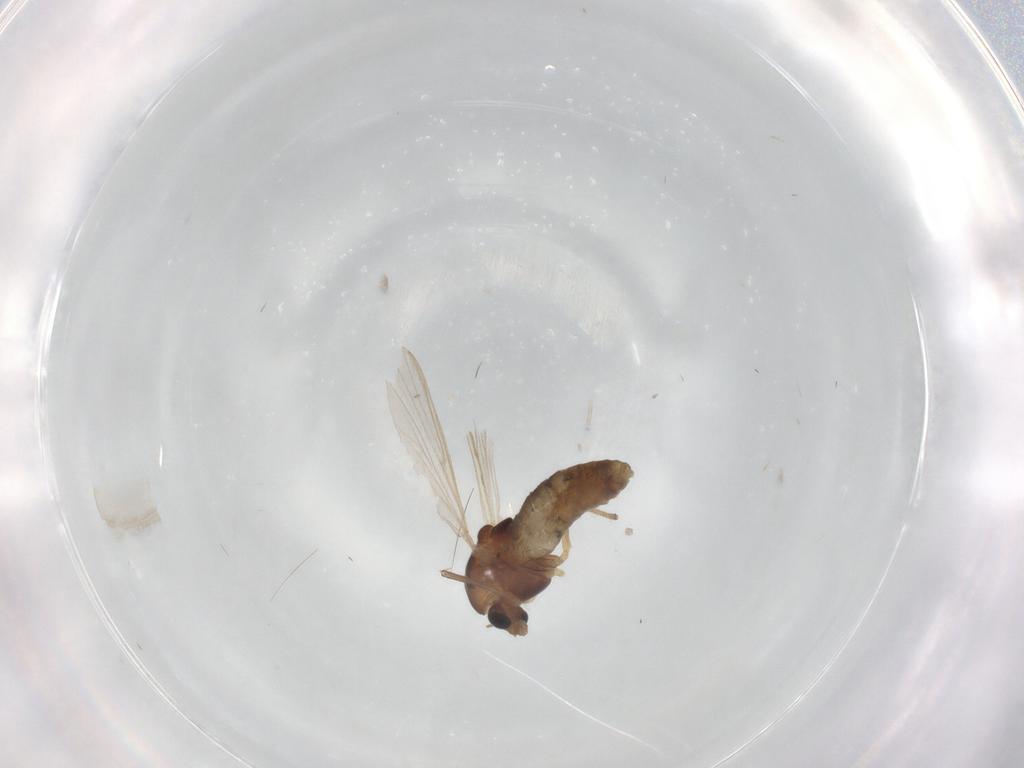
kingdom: Animalia
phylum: Arthropoda
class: Insecta
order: Diptera
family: Chironomidae
